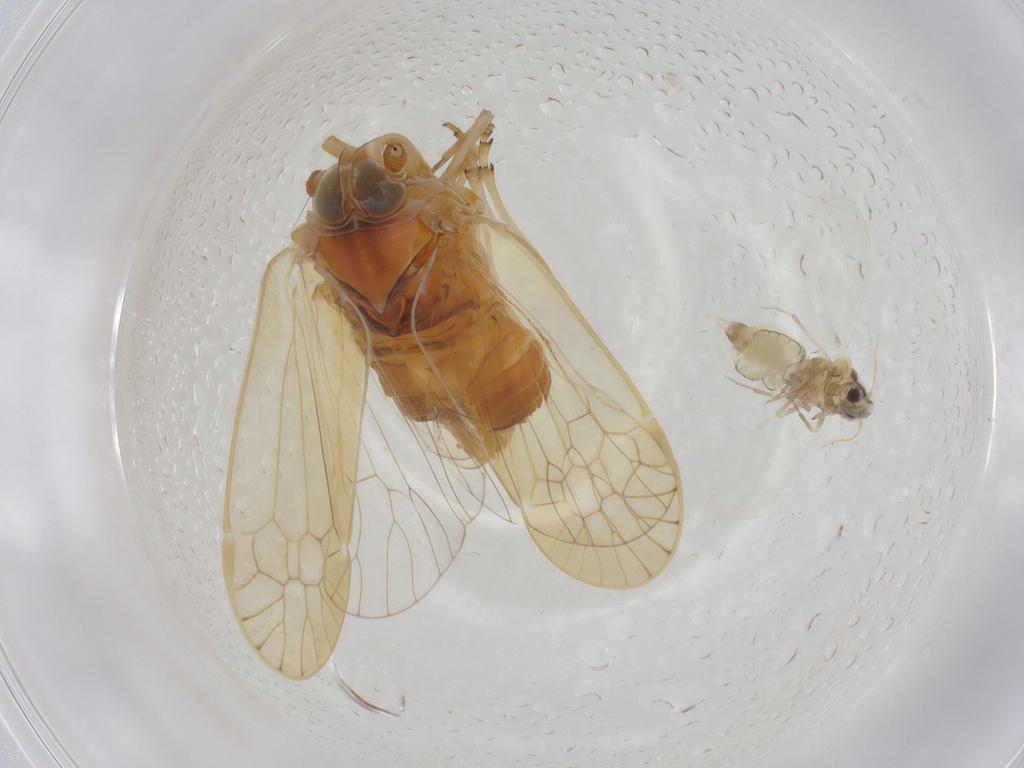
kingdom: Animalia
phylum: Arthropoda
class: Insecta
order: Hemiptera
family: Aleyrodidae
